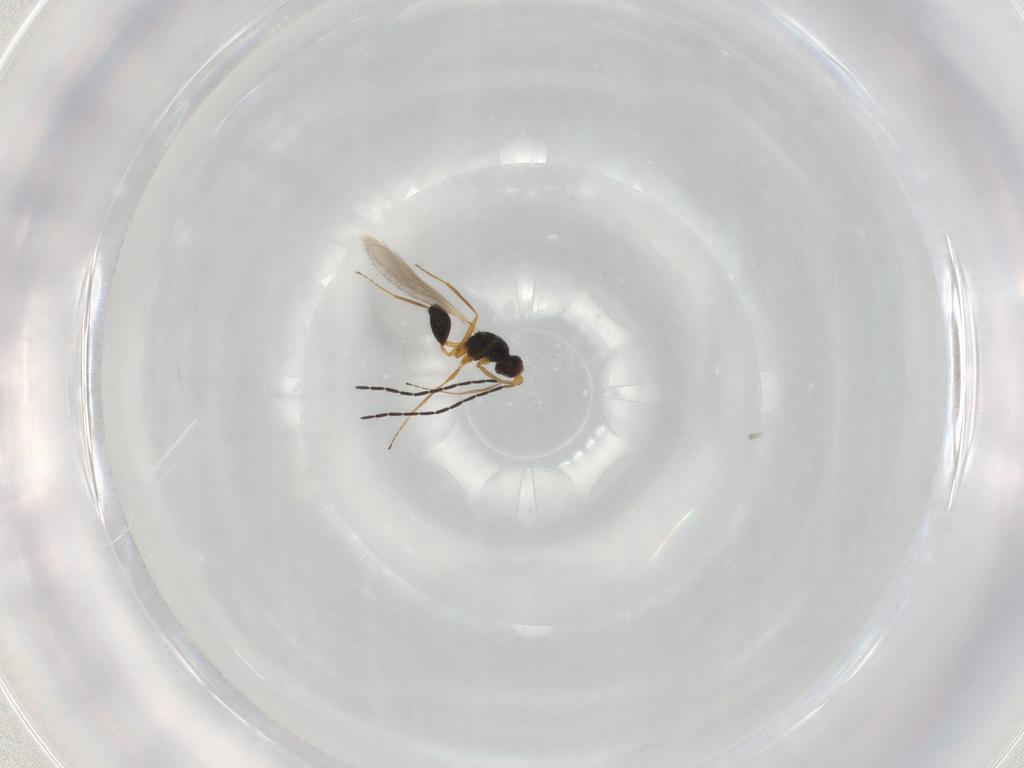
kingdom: Animalia
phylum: Arthropoda
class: Insecta
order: Hymenoptera
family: Mymaridae
